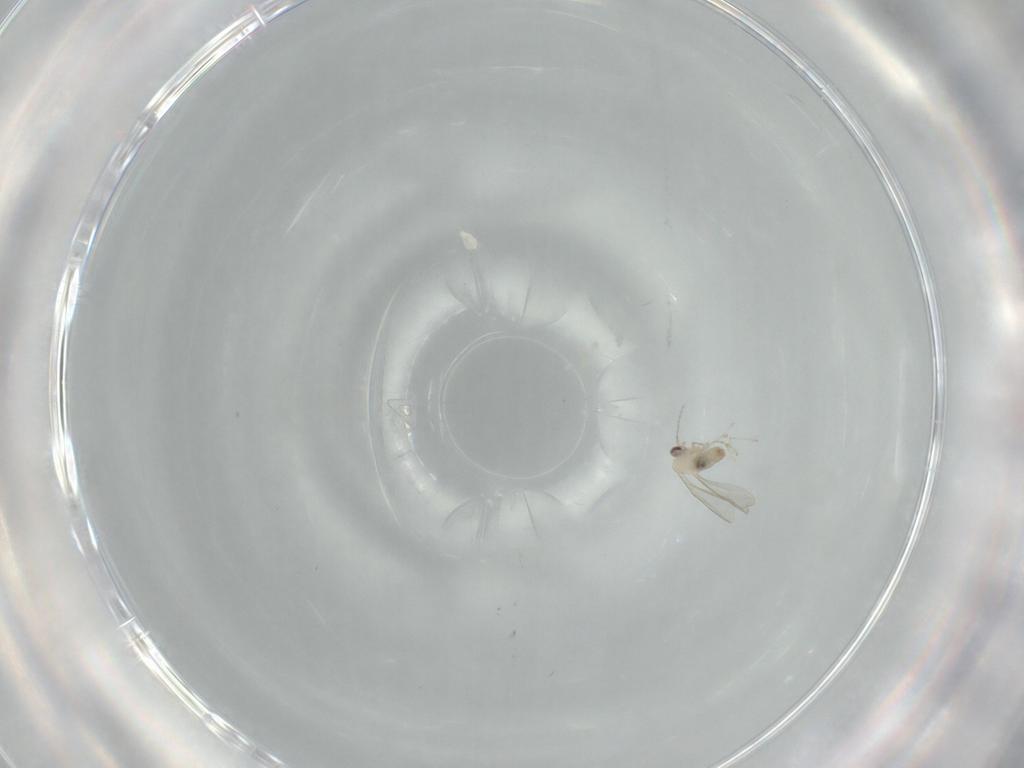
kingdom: Animalia
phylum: Arthropoda
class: Insecta
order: Diptera
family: Cecidomyiidae
